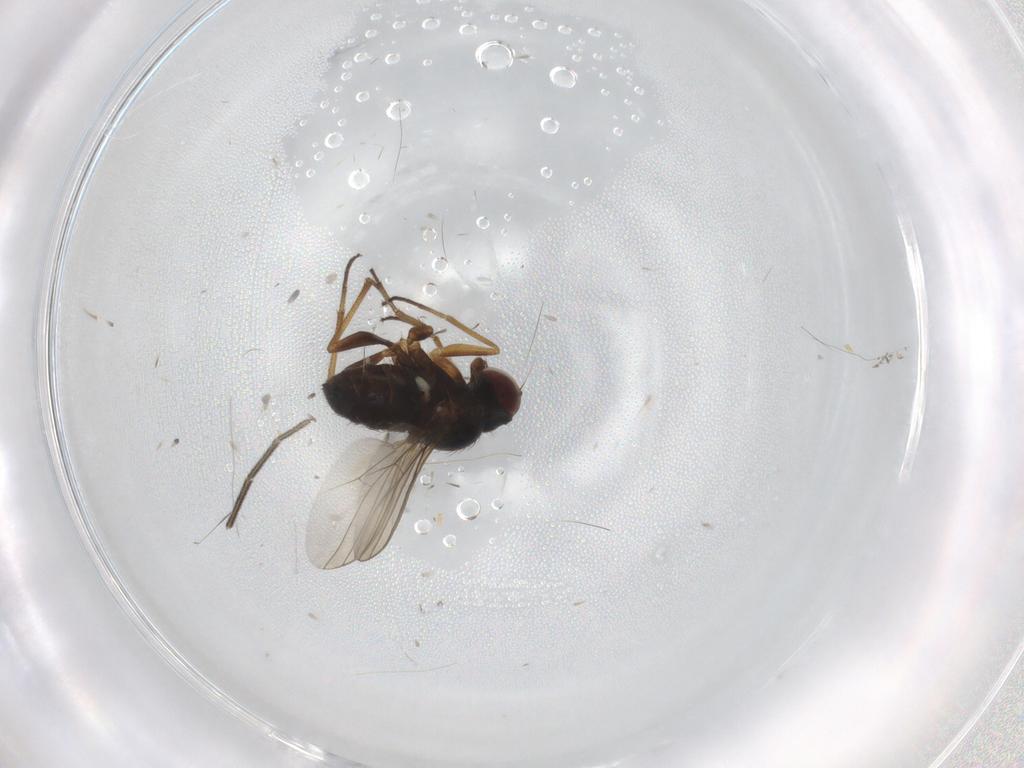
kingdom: Animalia
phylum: Arthropoda
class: Insecta
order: Diptera
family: Dolichopodidae
